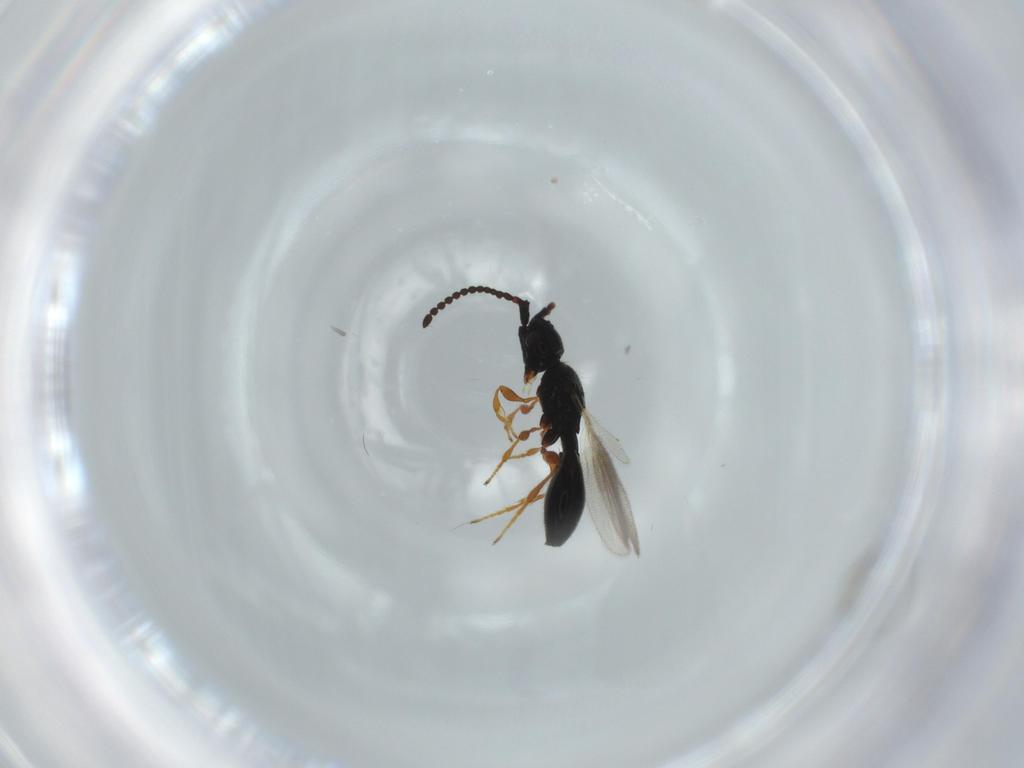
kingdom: Animalia
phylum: Arthropoda
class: Insecta
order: Hymenoptera
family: Diapriidae
